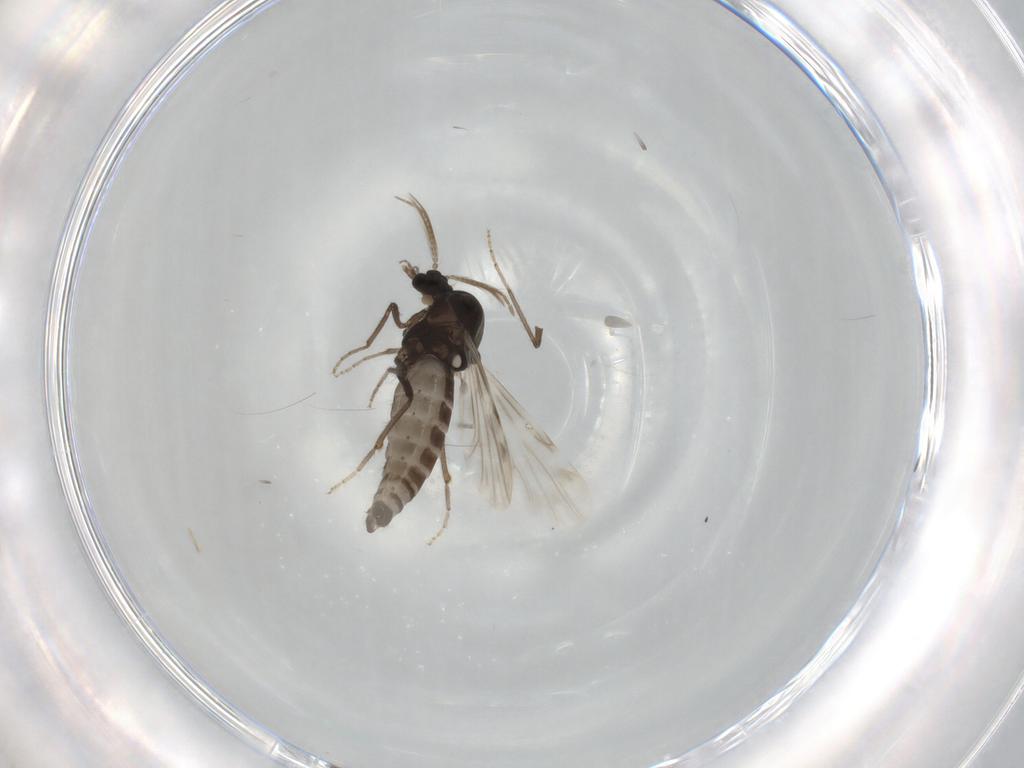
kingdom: Animalia
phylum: Arthropoda
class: Insecta
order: Diptera
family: Chironomidae
